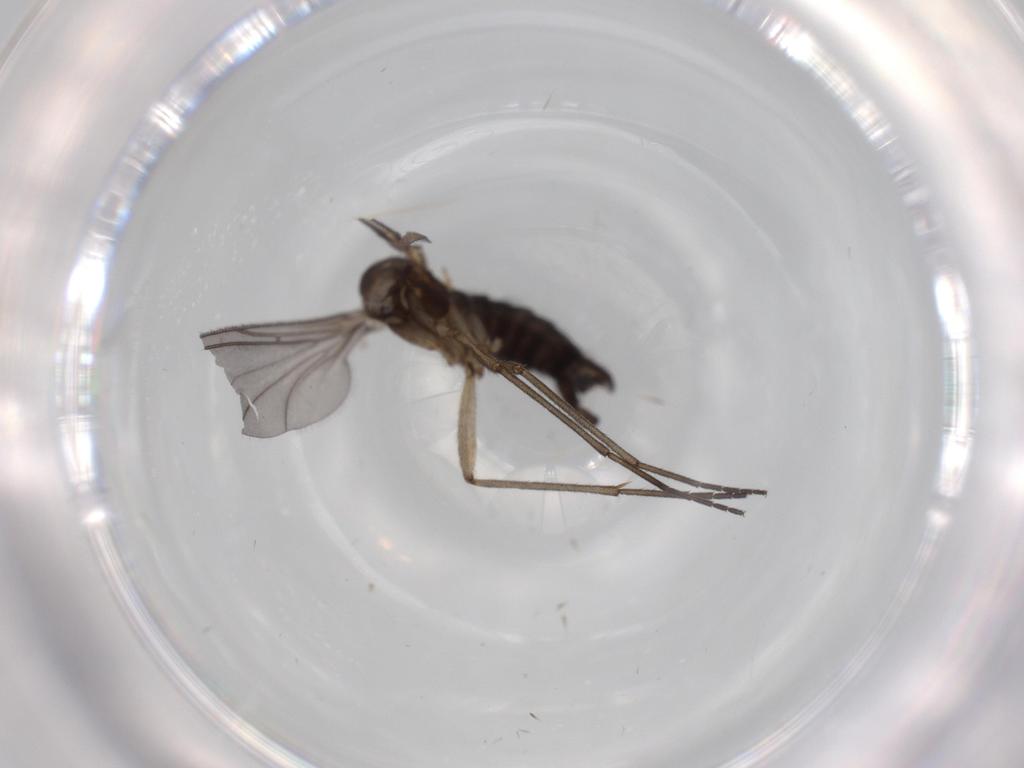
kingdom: Animalia
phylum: Arthropoda
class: Insecta
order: Diptera
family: Sciaridae
